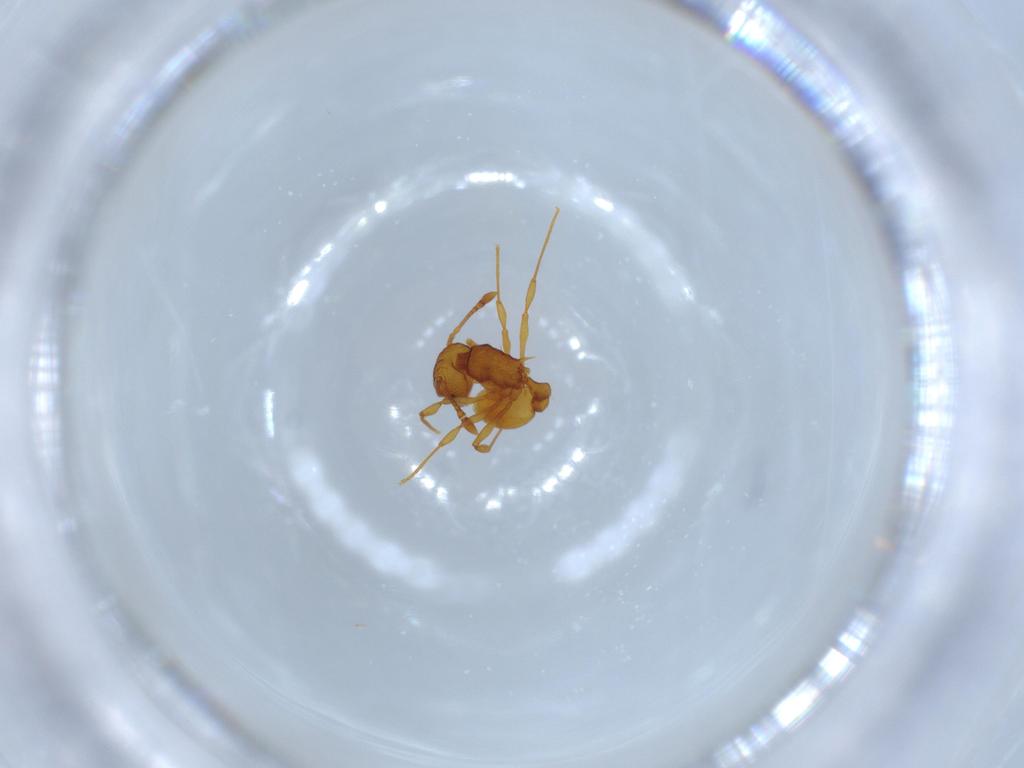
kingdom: Animalia
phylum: Arthropoda
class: Insecta
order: Hymenoptera
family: Formicidae
